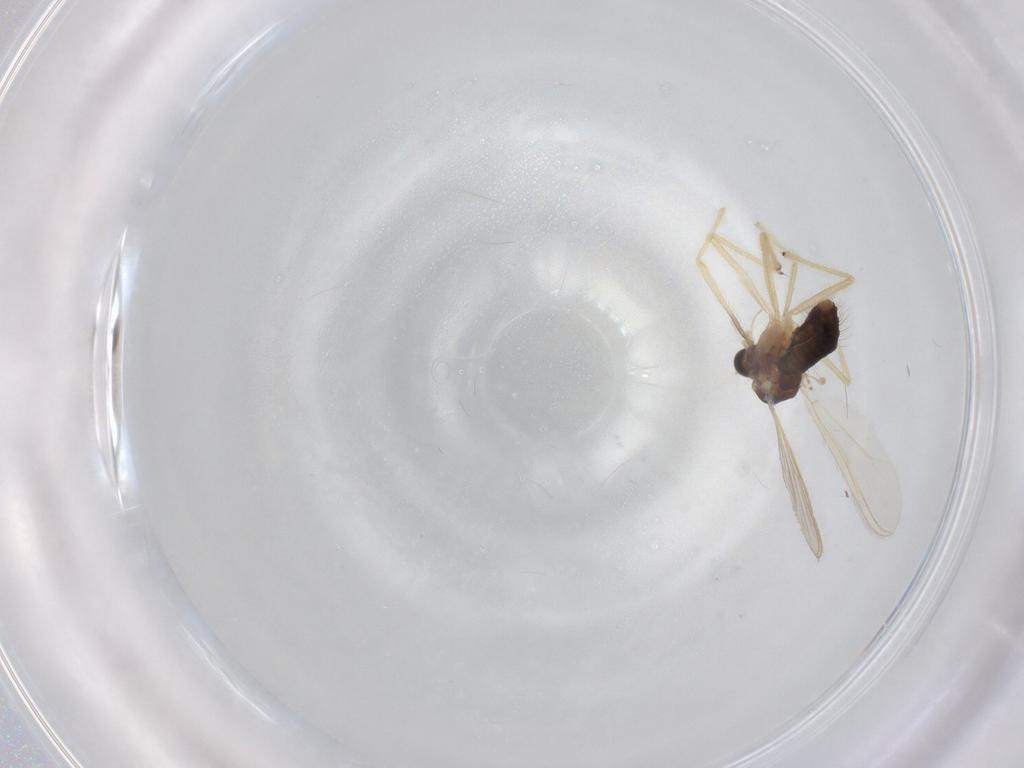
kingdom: Animalia
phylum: Arthropoda
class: Insecta
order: Diptera
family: Chironomidae
